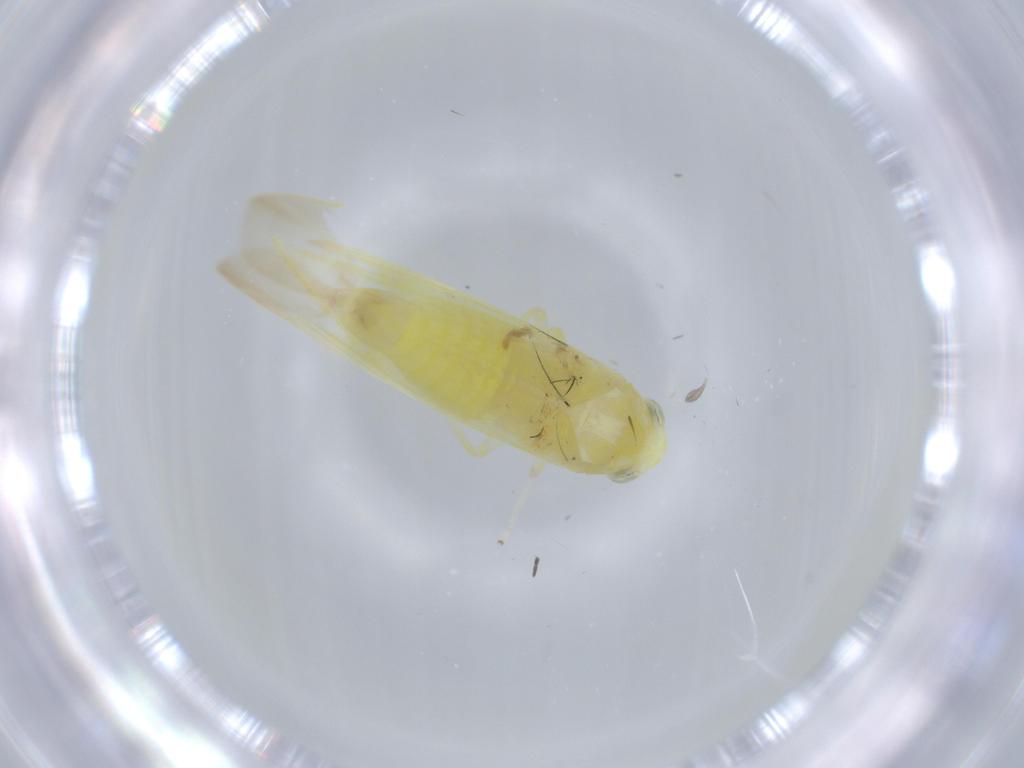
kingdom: Animalia
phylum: Arthropoda
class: Insecta
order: Hemiptera
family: Cicadellidae
